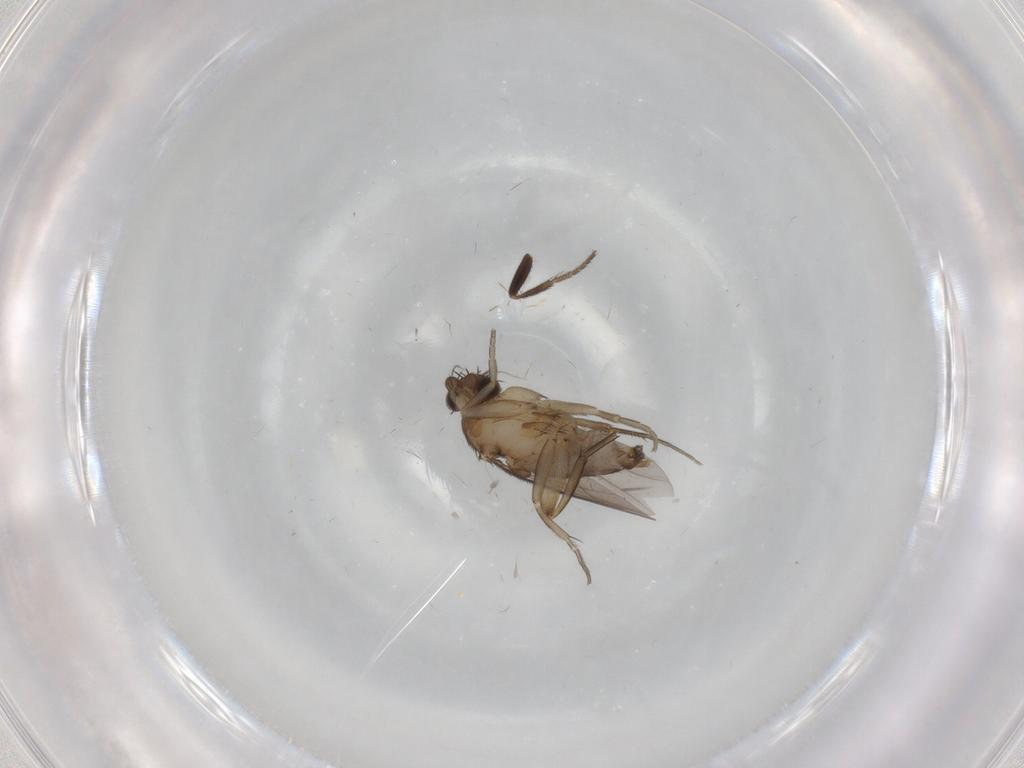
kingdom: Animalia
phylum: Arthropoda
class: Insecta
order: Diptera
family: Phoridae
